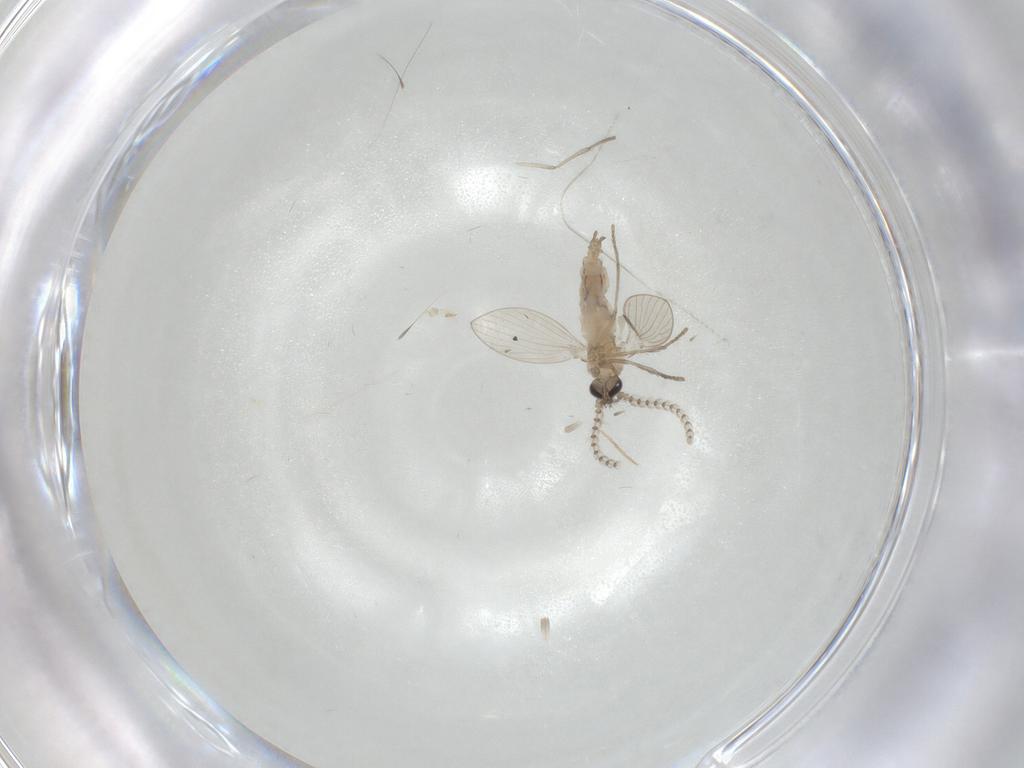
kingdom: Animalia
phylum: Arthropoda
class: Insecta
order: Diptera
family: Psychodidae
